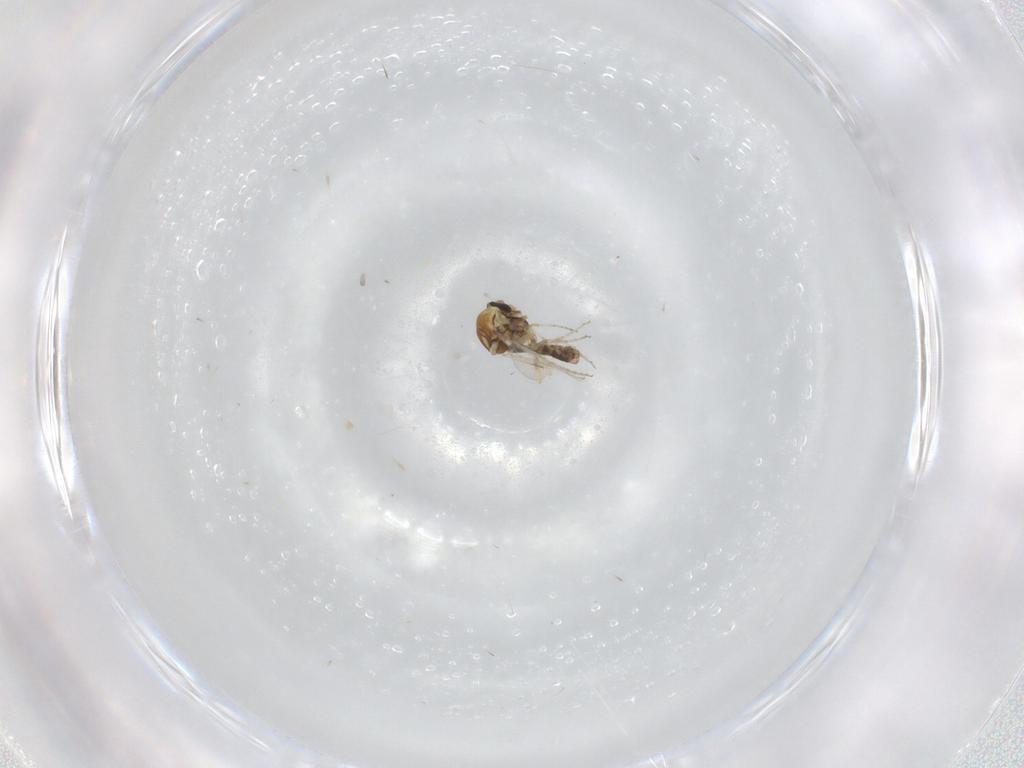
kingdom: Animalia
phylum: Arthropoda
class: Insecta
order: Diptera
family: Ceratopogonidae
